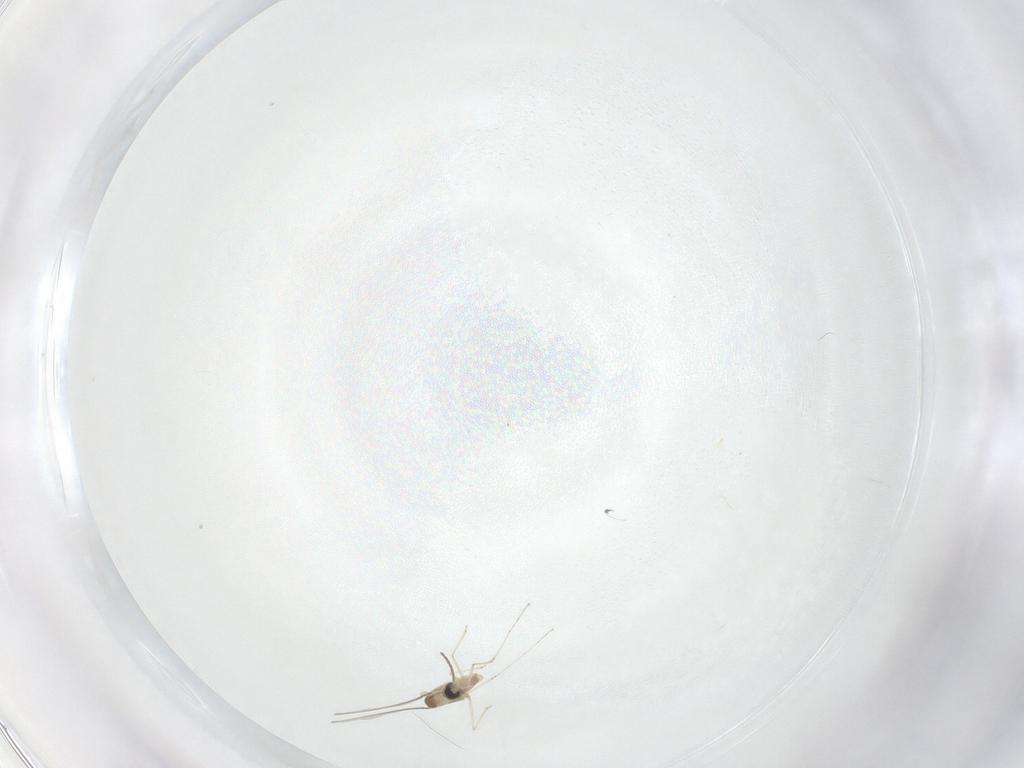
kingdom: Animalia
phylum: Arthropoda
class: Insecta
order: Diptera
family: Cecidomyiidae
